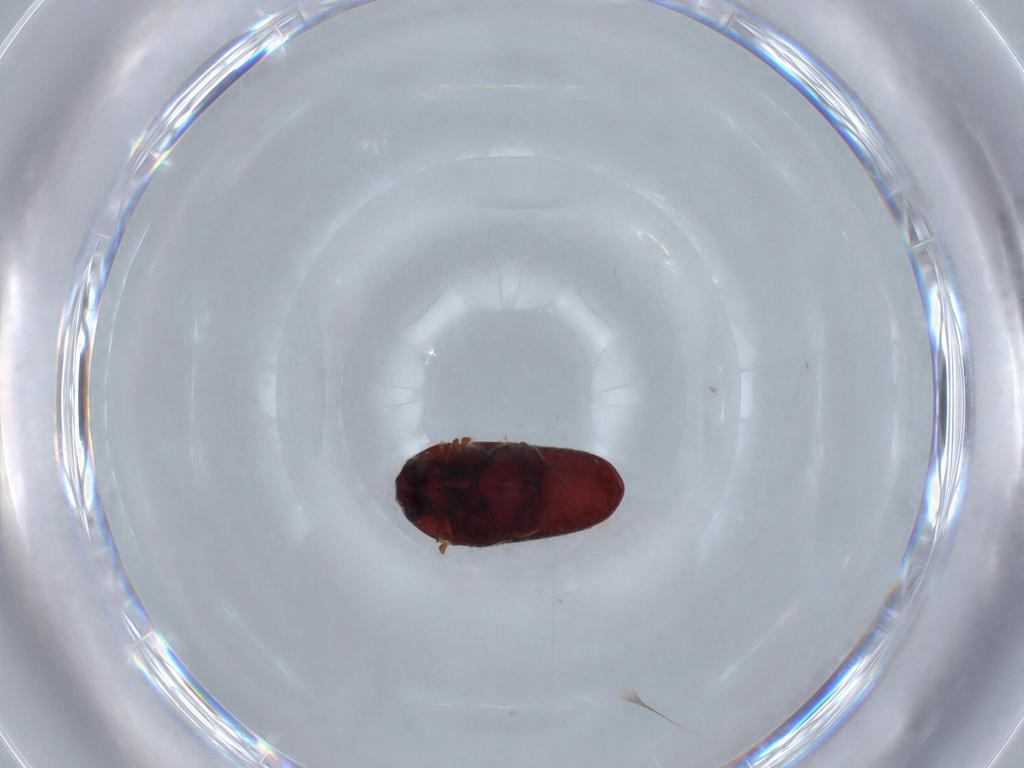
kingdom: Animalia
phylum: Arthropoda
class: Insecta
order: Coleoptera
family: Throscidae
